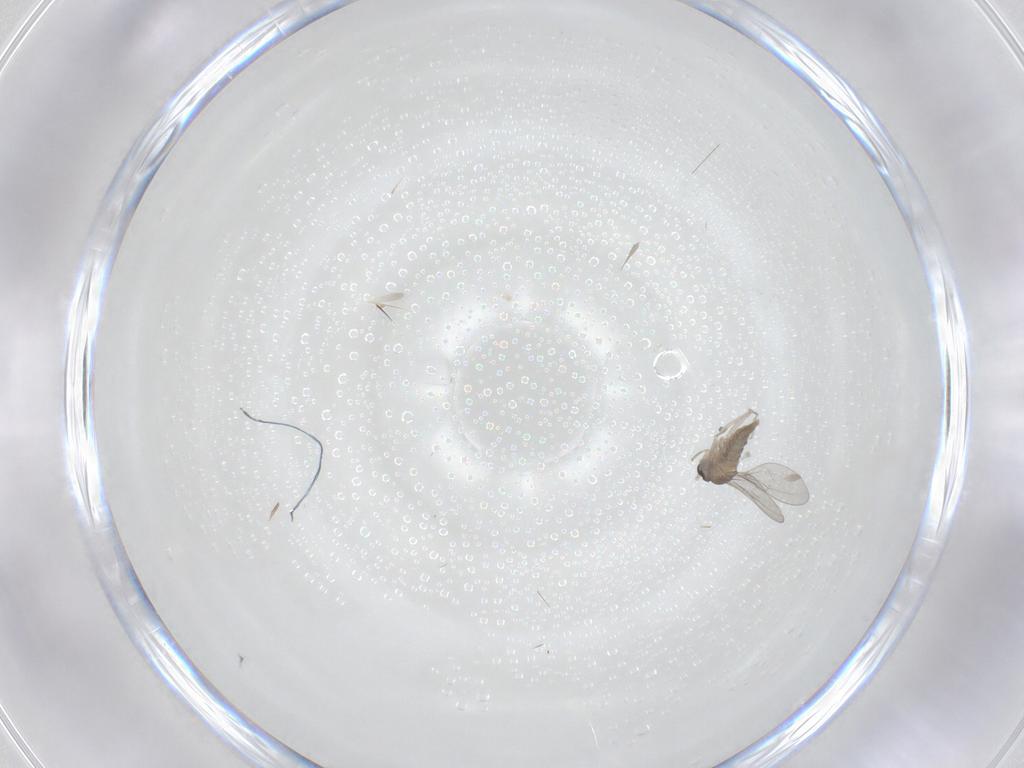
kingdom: Animalia
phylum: Arthropoda
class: Insecta
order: Diptera
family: Cecidomyiidae
